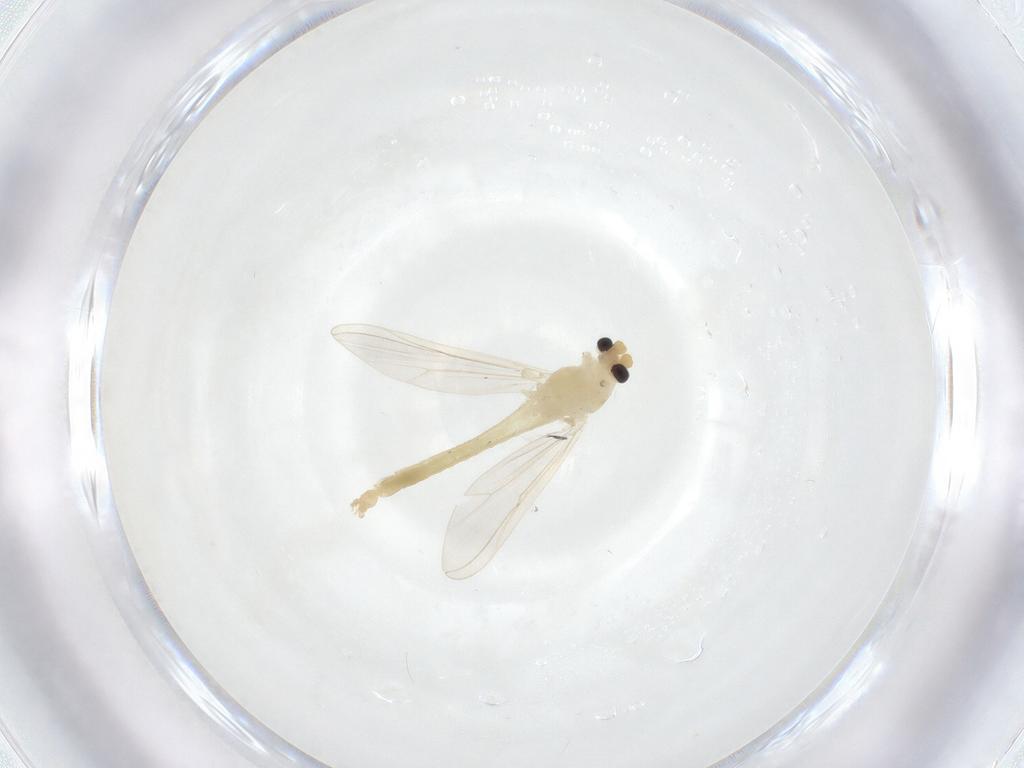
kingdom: Animalia
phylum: Arthropoda
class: Insecta
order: Diptera
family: Chironomidae
